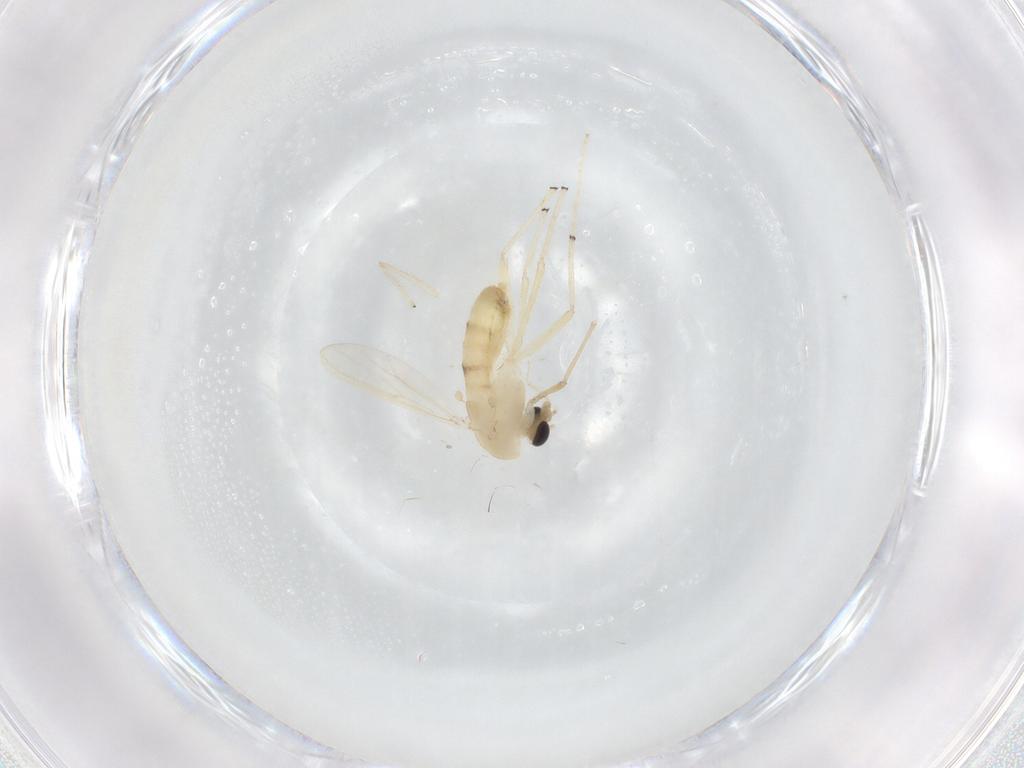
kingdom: Animalia
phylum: Arthropoda
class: Insecta
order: Diptera
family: Chironomidae
